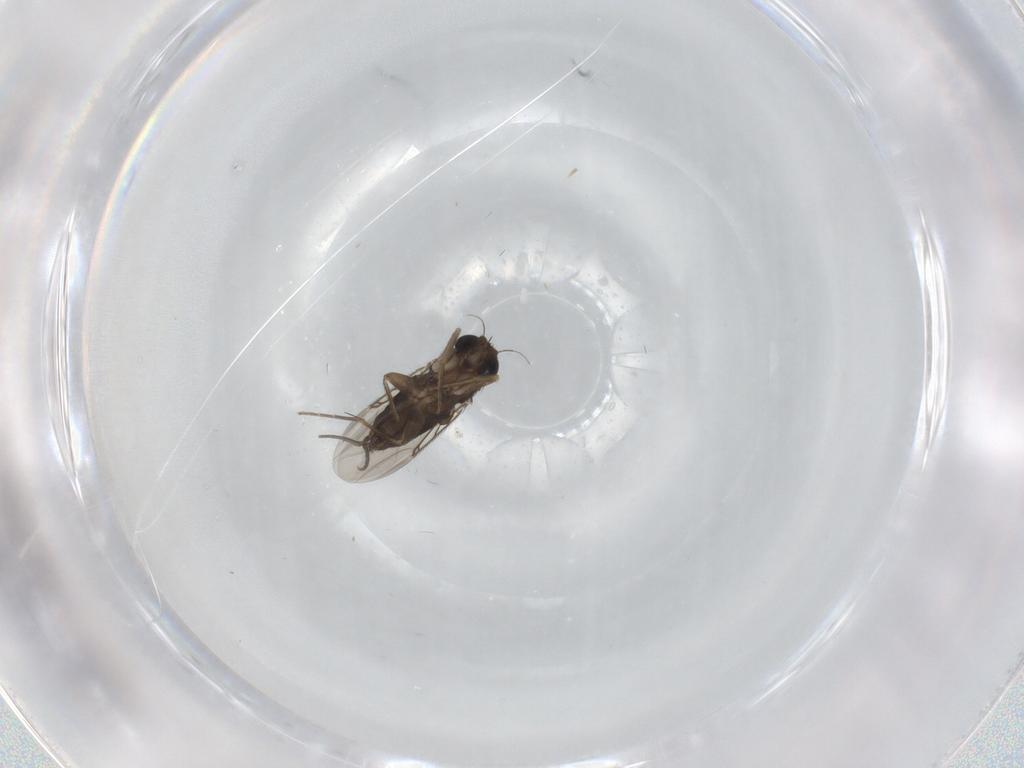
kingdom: Animalia
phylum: Arthropoda
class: Insecta
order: Diptera
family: Phoridae
